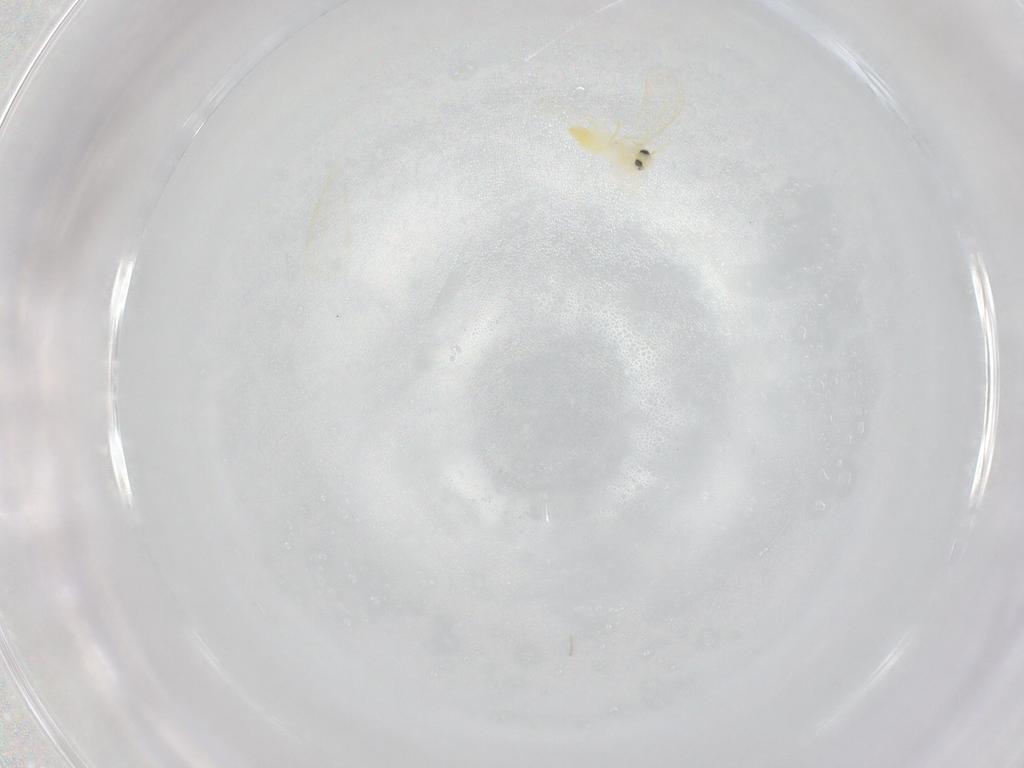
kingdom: Animalia
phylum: Arthropoda
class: Insecta
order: Hemiptera
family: Coccoidea_incertae_sedis
